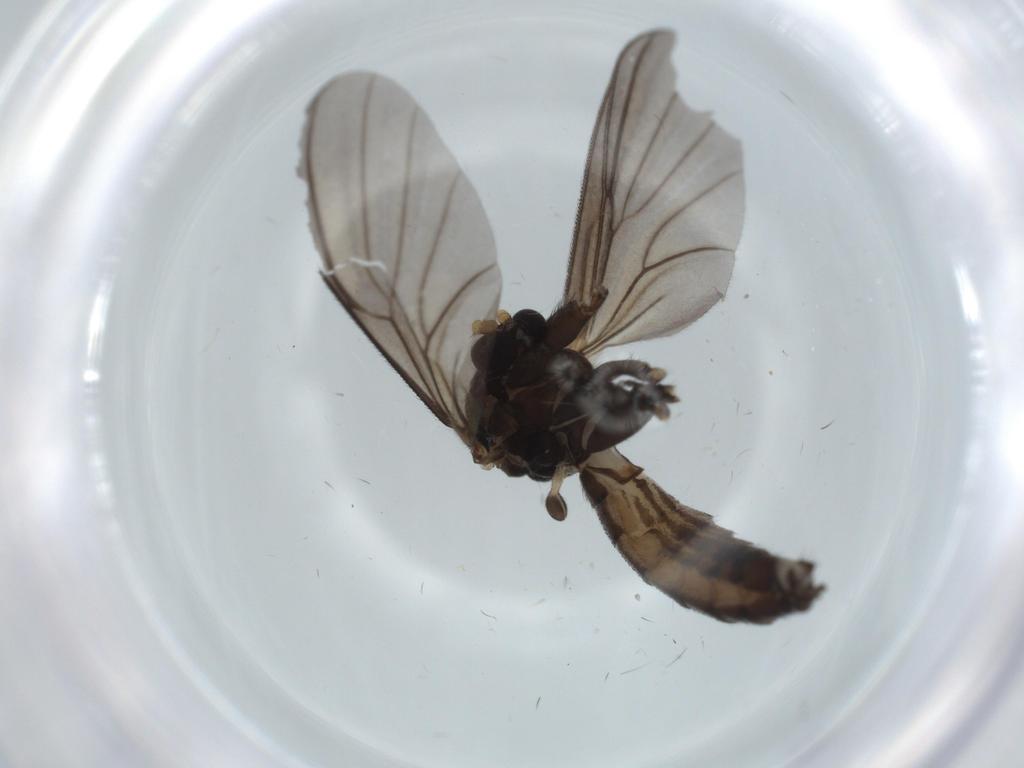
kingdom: Animalia
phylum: Arthropoda
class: Insecta
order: Diptera
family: Mycetophilidae
